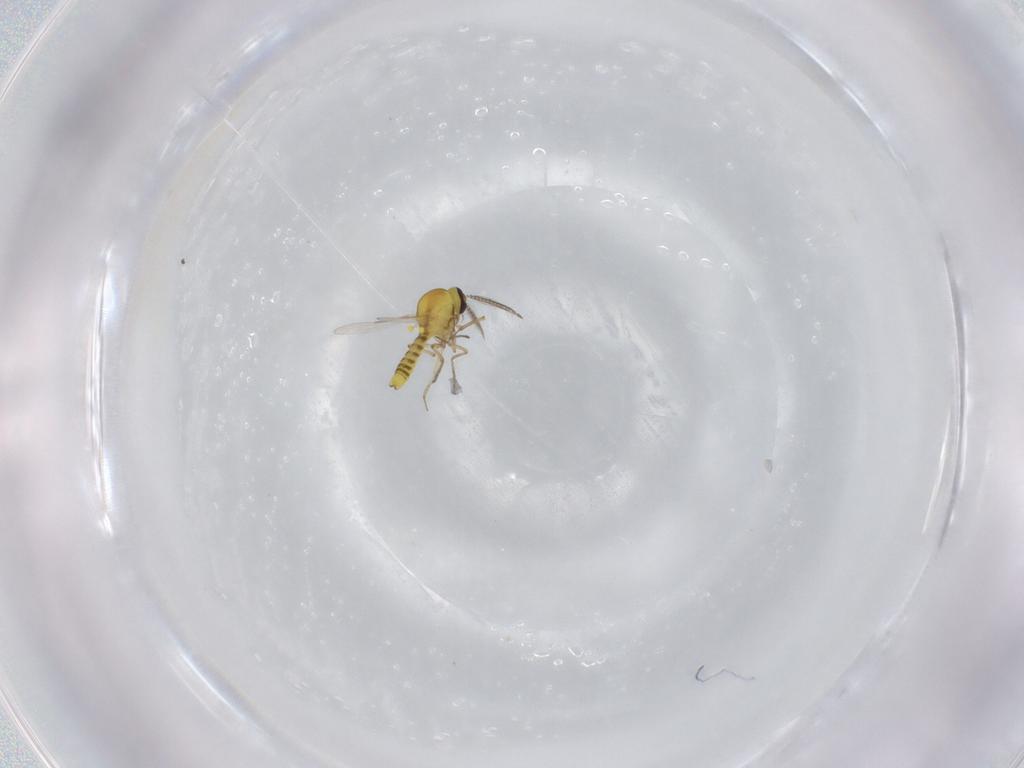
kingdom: Animalia
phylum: Arthropoda
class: Insecta
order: Diptera
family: Ceratopogonidae
